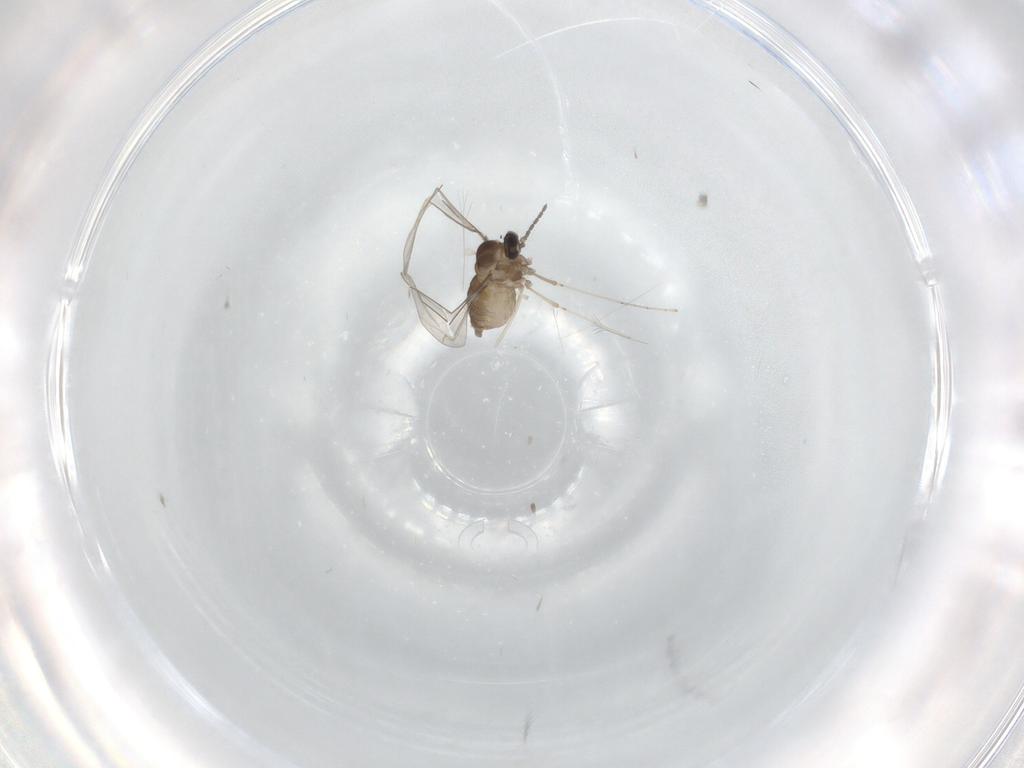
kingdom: Animalia
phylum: Arthropoda
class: Insecta
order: Diptera
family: Cecidomyiidae
